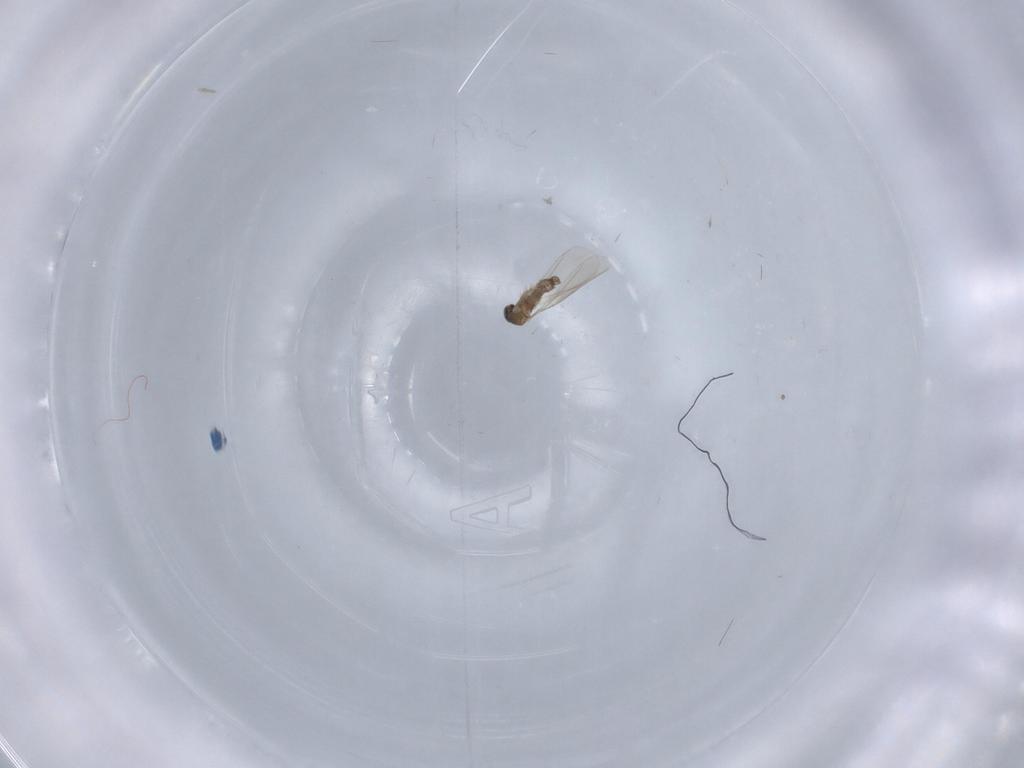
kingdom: Animalia
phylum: Arthropoda
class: Insecta
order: Diptera
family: Cecidomyiidae
